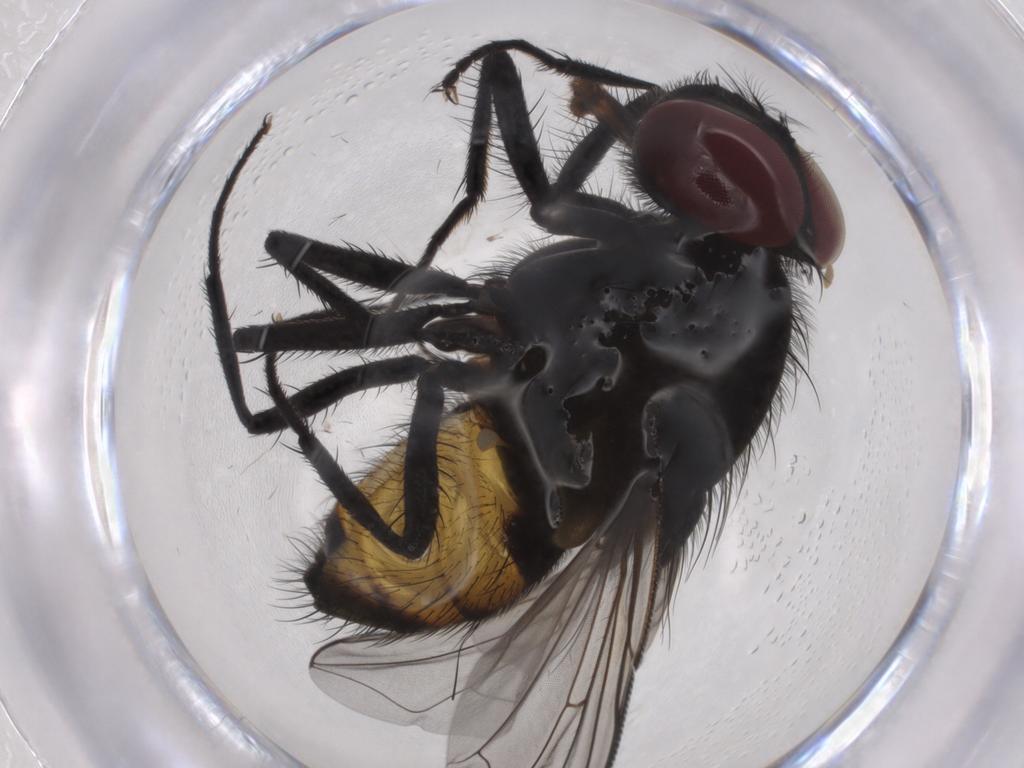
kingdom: Animalia
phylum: Arthropoda
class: Insecta
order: Diptera
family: Muscidae
